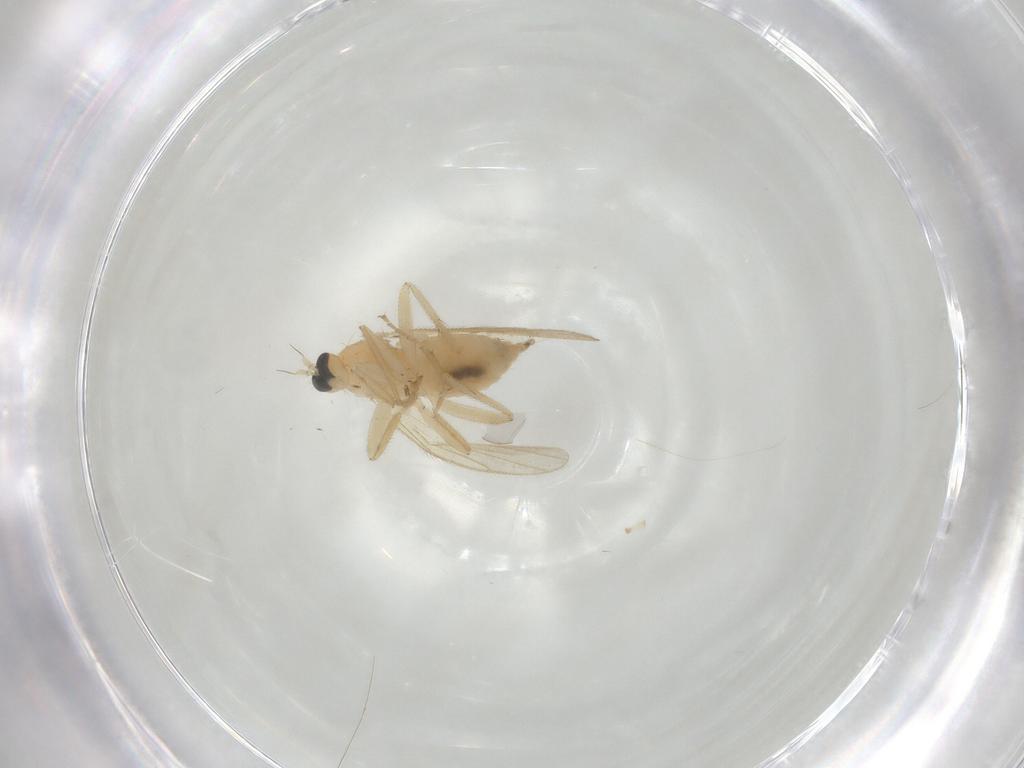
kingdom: Animalia
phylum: Arthropoda
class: Insecta
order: Diptera
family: Hybotidae
